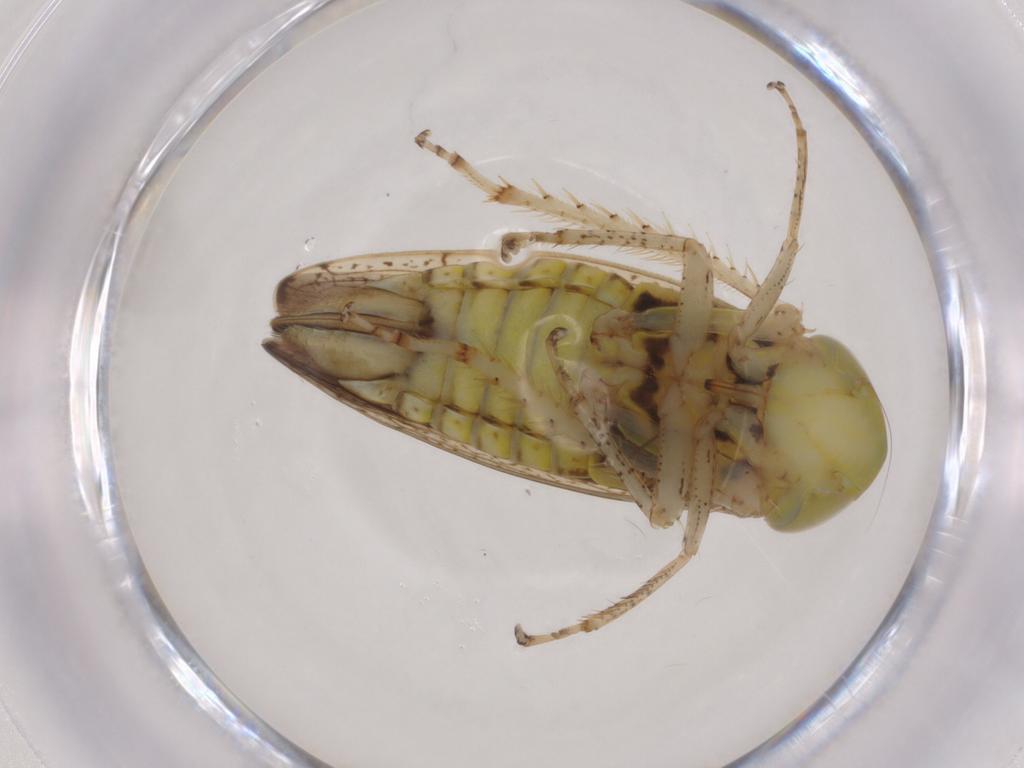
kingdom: Animalia
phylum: Arthropoda
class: Insecta
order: Hemiptera
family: Cicadellidae
